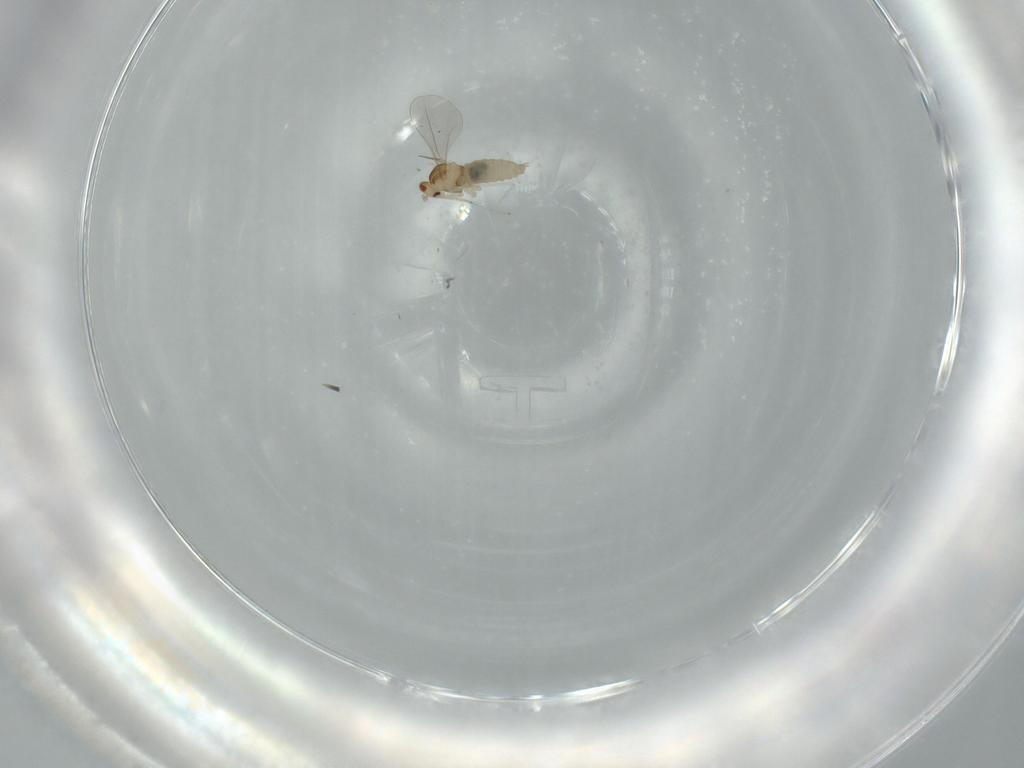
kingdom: Animalia
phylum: Arthropoda
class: Insecta
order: Diptera
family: Cecidomyiidae
